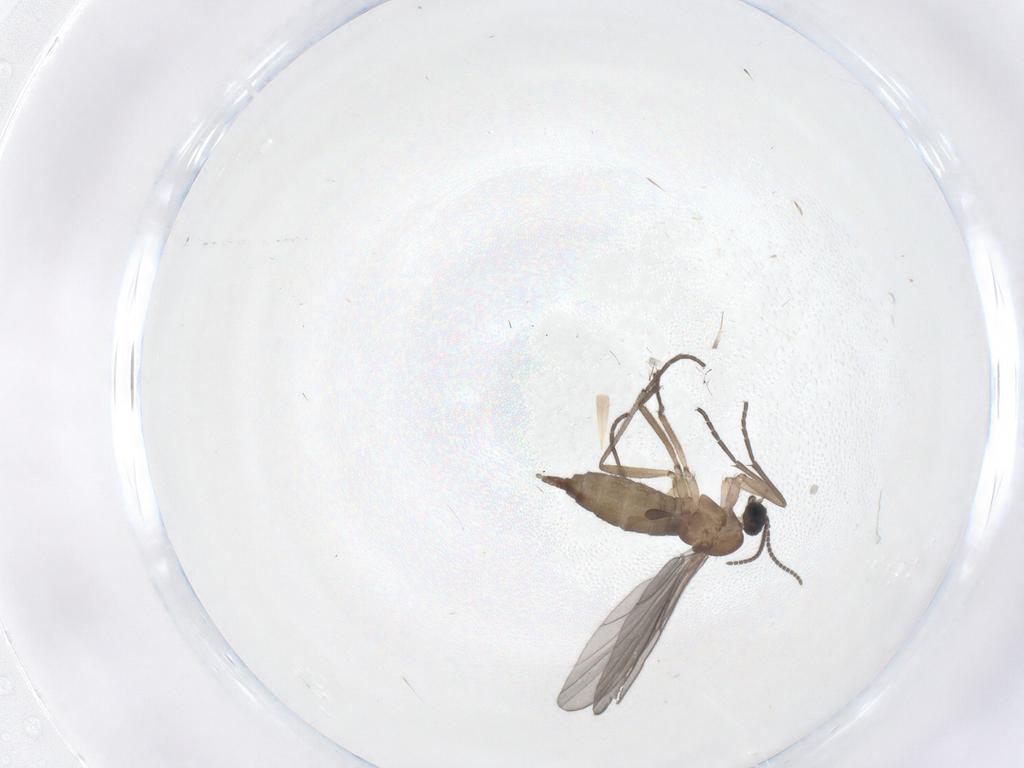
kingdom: Animalia
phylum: Arthropoda
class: Insecta
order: Diptera
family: Sciaridae
